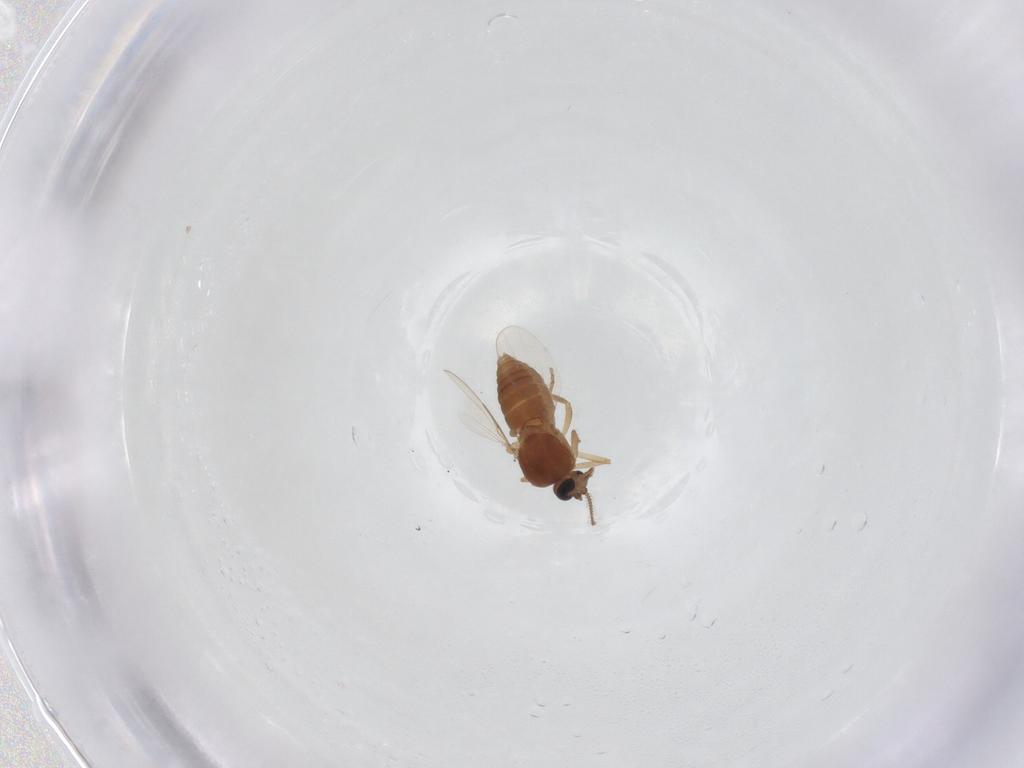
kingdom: Animalia
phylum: Arthropoda
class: Insecta
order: Diptera
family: Ceratopogonidae
